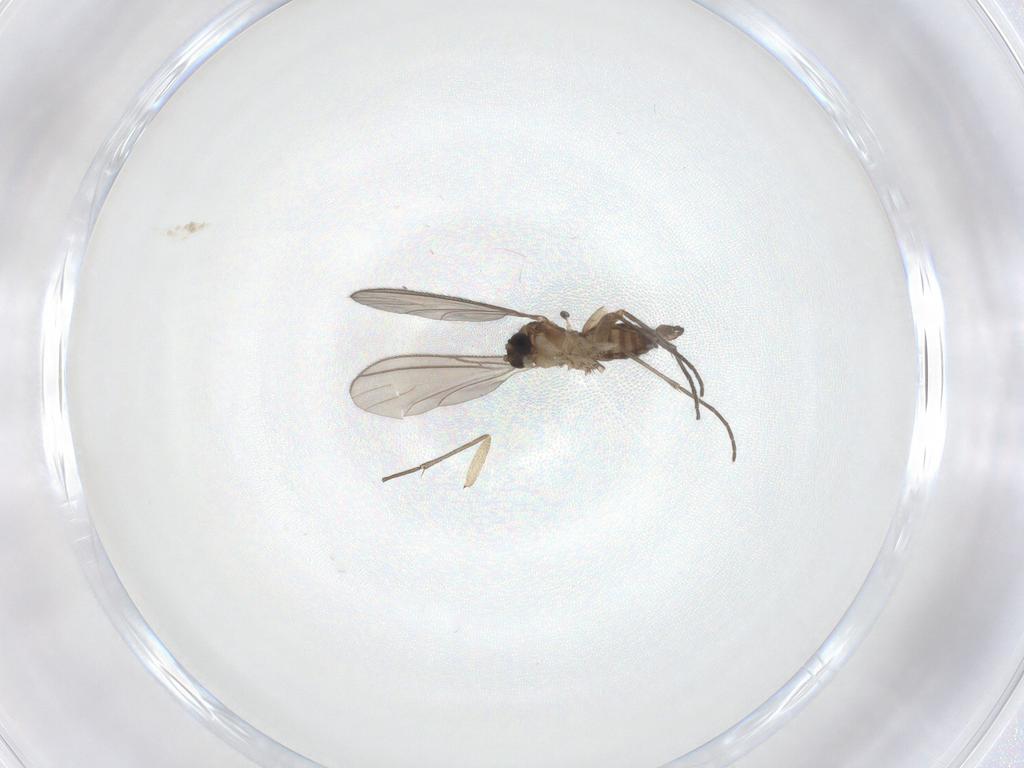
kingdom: Animalia
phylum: Arthropoda
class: Insecta
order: Diptera
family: Sciaridae
